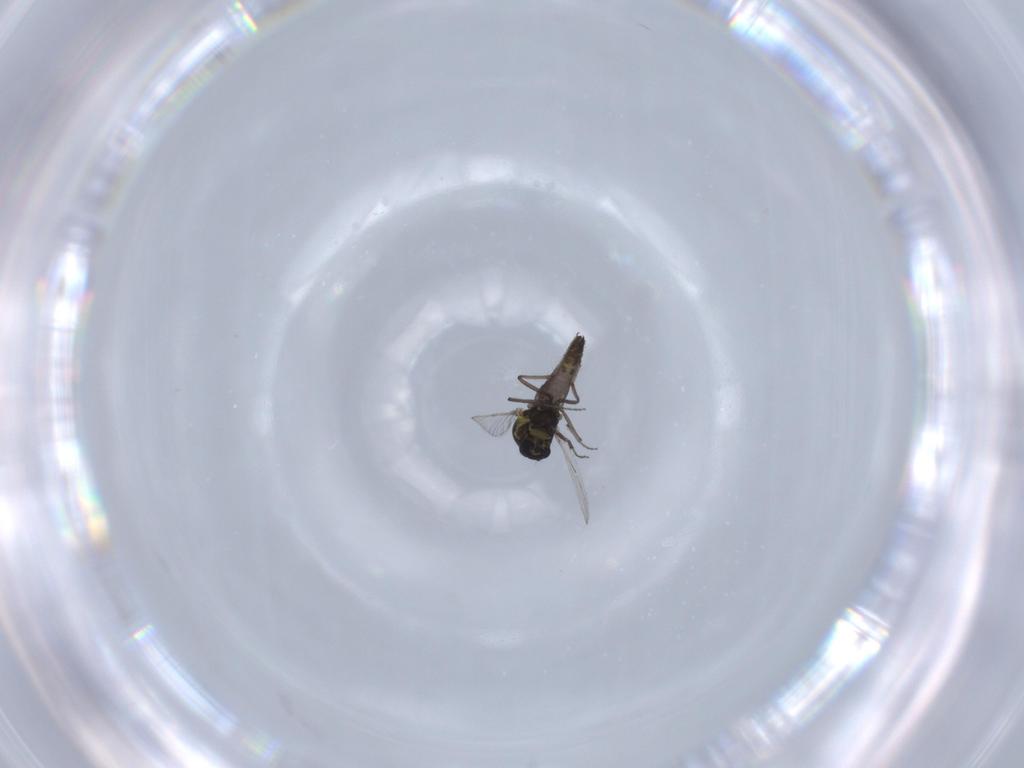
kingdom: Animalia
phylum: Arthropoda
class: Insecta
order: Diptera
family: Ceratopogonidae
